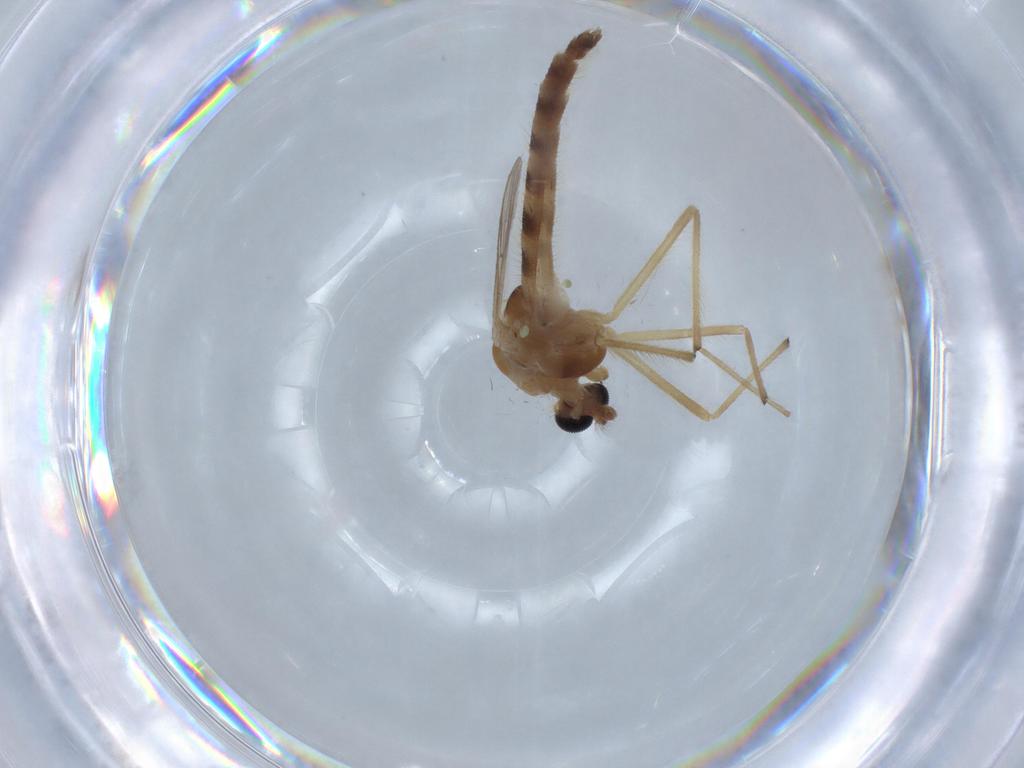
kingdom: Animalia
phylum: Arthropoda
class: Insecta
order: Diptera
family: Chironomidae
